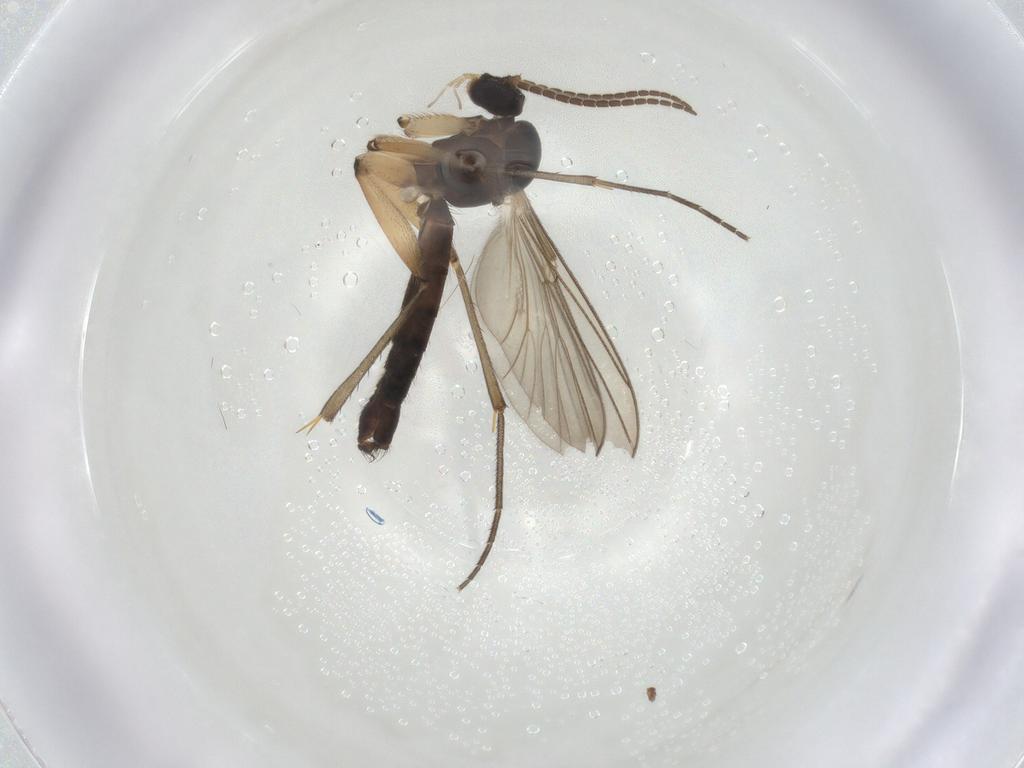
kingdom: Animalia
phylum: Arthropoda
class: Insecta
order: Diptera
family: Mycetophilidae
